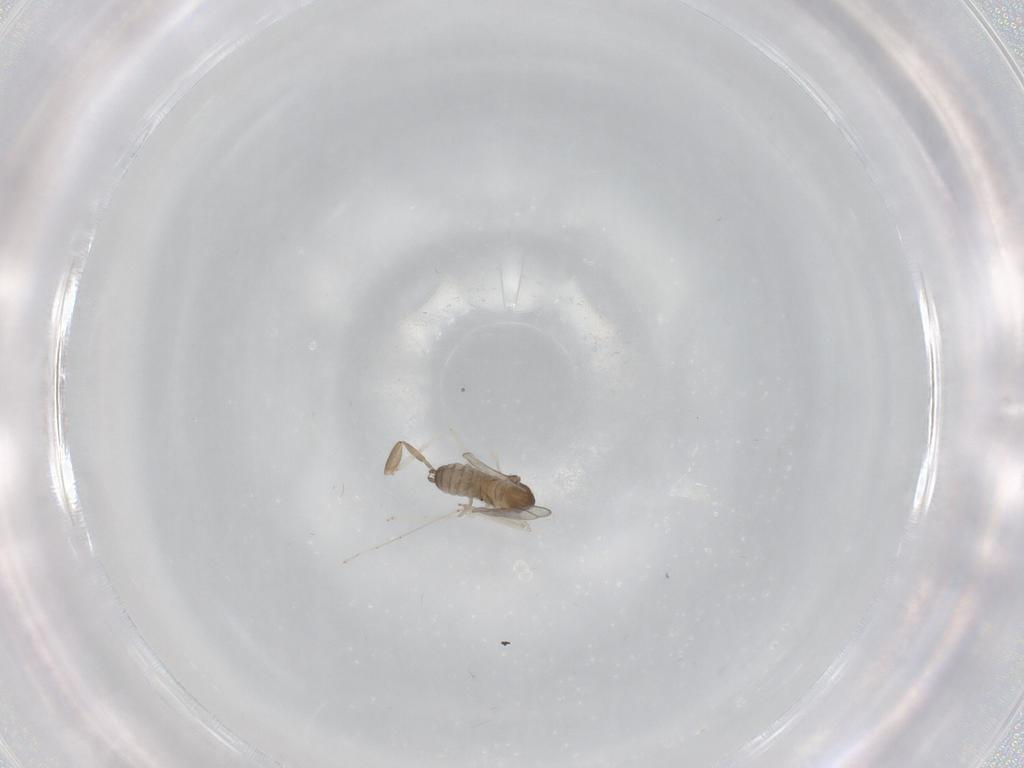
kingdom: Animalia
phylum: Arthropoda
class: Insecta
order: Diptera
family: Cecidomyiidae
